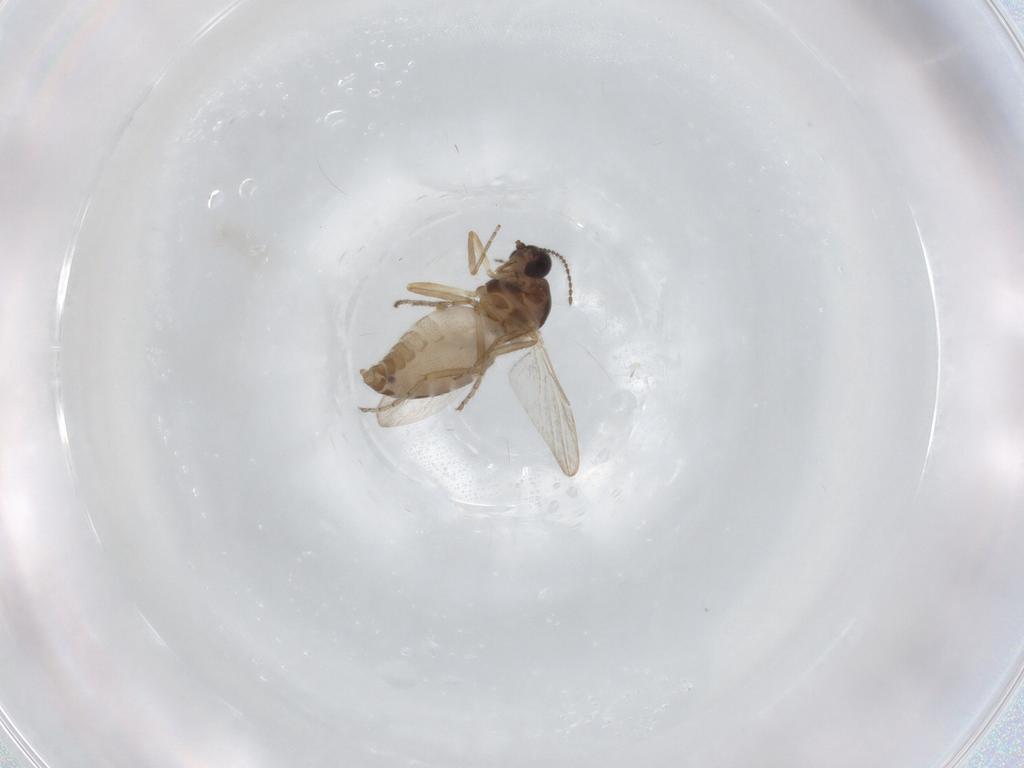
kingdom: Animalia
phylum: Arthropoda
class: Insecta
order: Diptera
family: Ceratopogonidae
